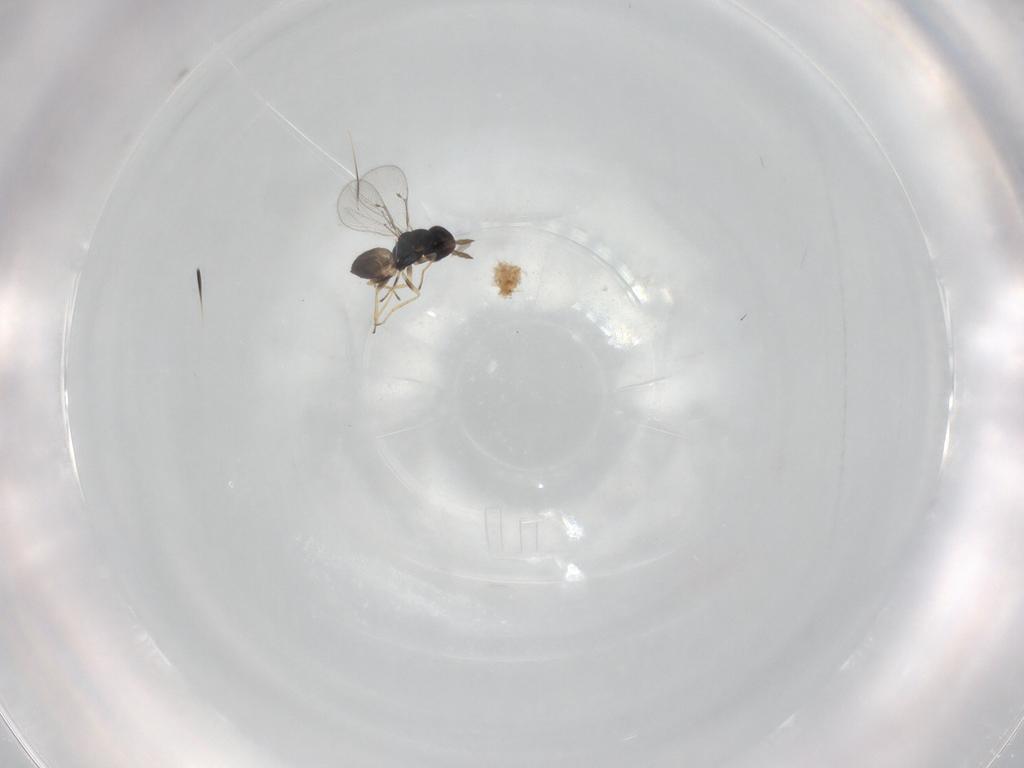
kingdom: Animalia
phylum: Arthropoda
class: Insecta
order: Hymenoptera
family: Eulophidae
